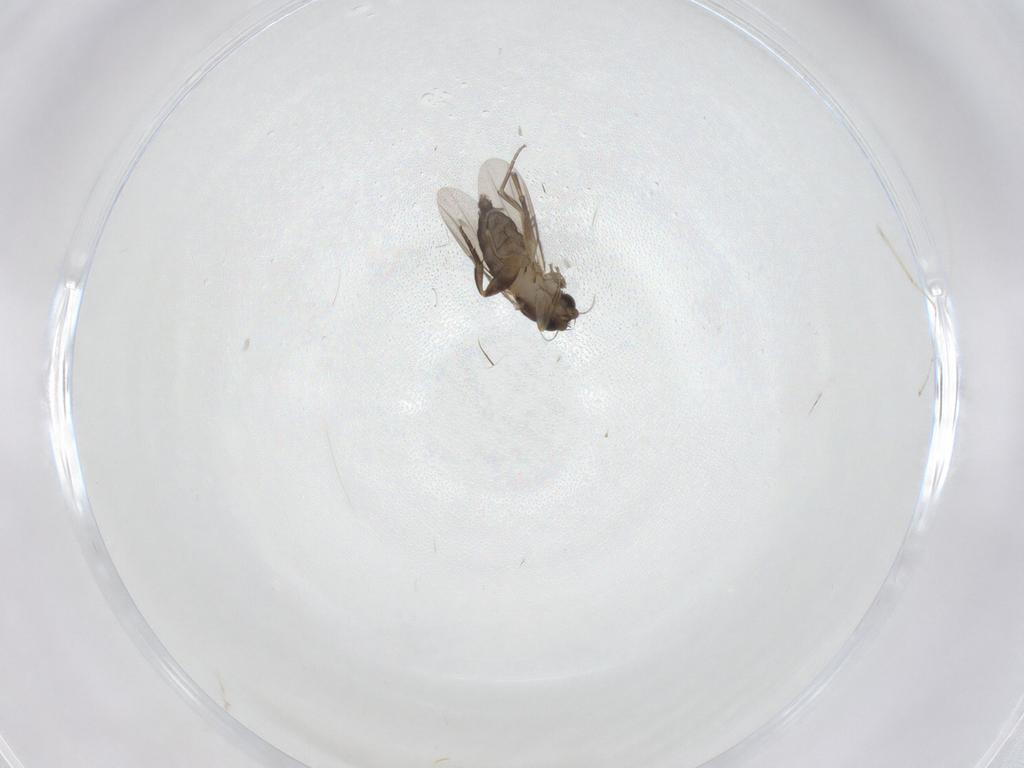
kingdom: Animalia
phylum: Arthropoda
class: Insecta
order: Diptera
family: Phoridae
